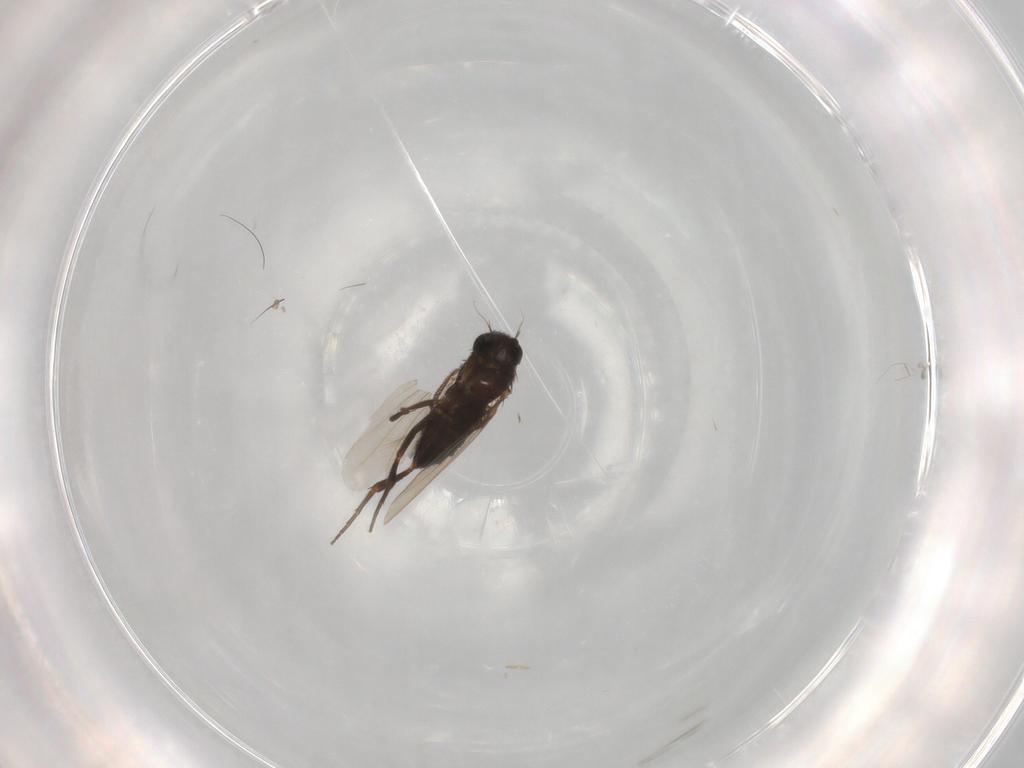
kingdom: Animalia
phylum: Arthropoda
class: Insecta
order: Diptera
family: Phoridae
